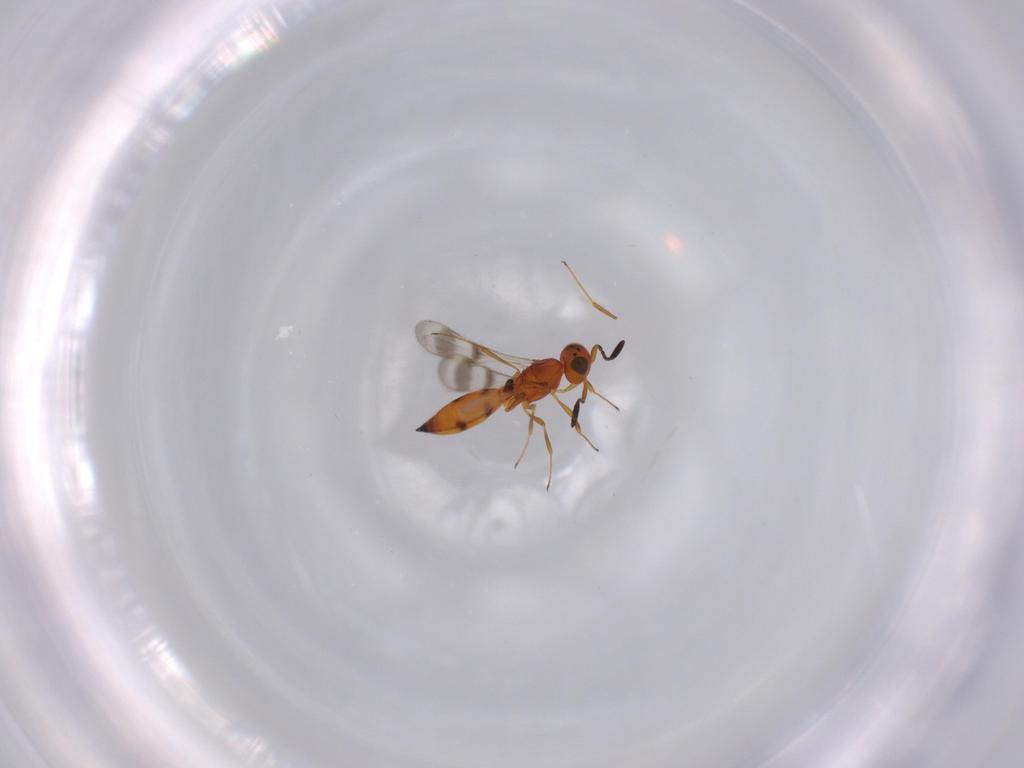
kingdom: Animalia
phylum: Arthropoda
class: Insecta
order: Hymenoptera
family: Scelionidae
